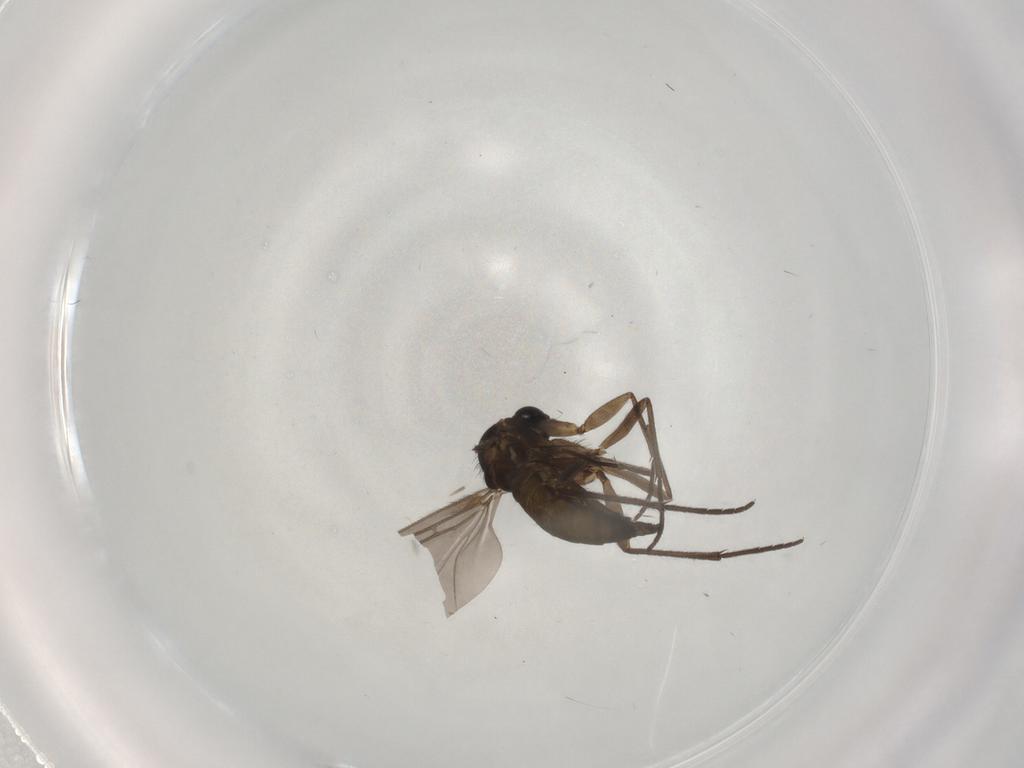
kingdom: Animalia
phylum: Arthropoda
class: Insecta
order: Diptera
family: Sciaridae
